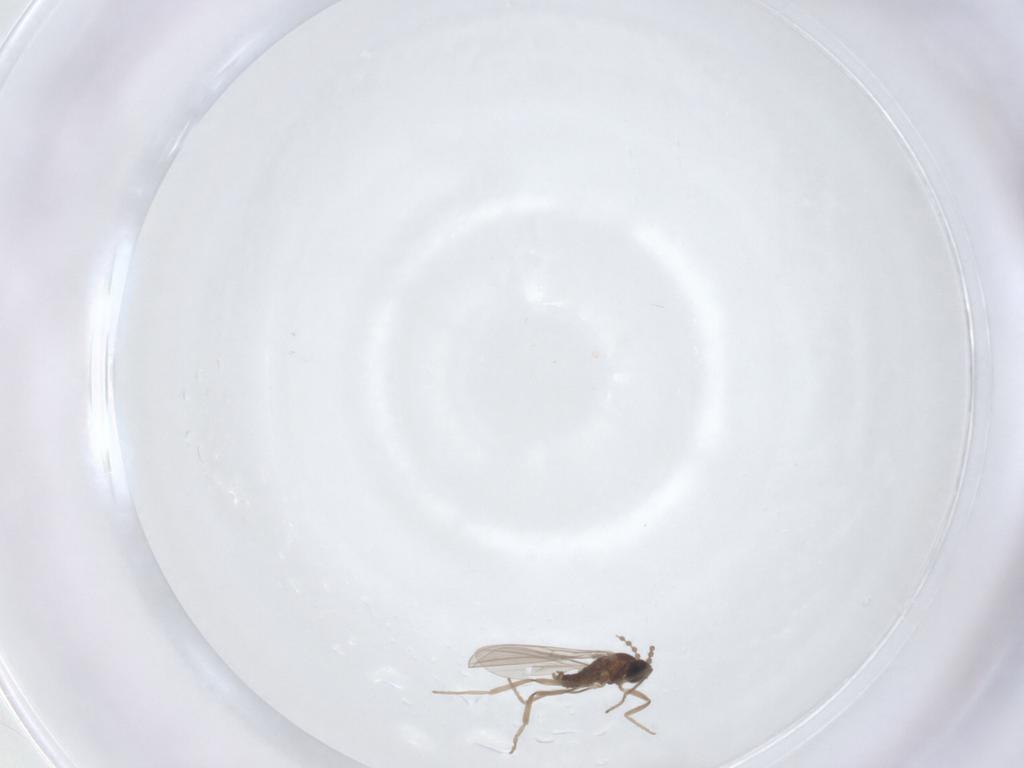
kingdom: Animalia
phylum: Arthropoda
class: Insecta
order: Diptera
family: Cecidomyiidae
